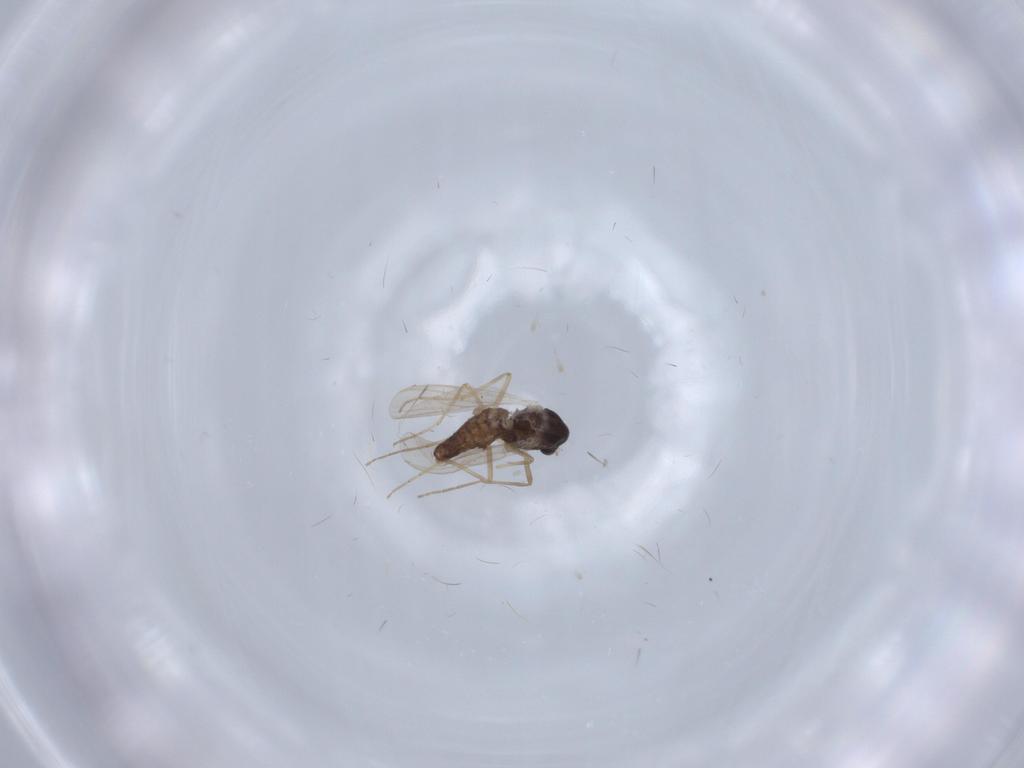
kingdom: Animalia
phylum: Arthropoda
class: Insecta
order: Diptera
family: Chironomidae
